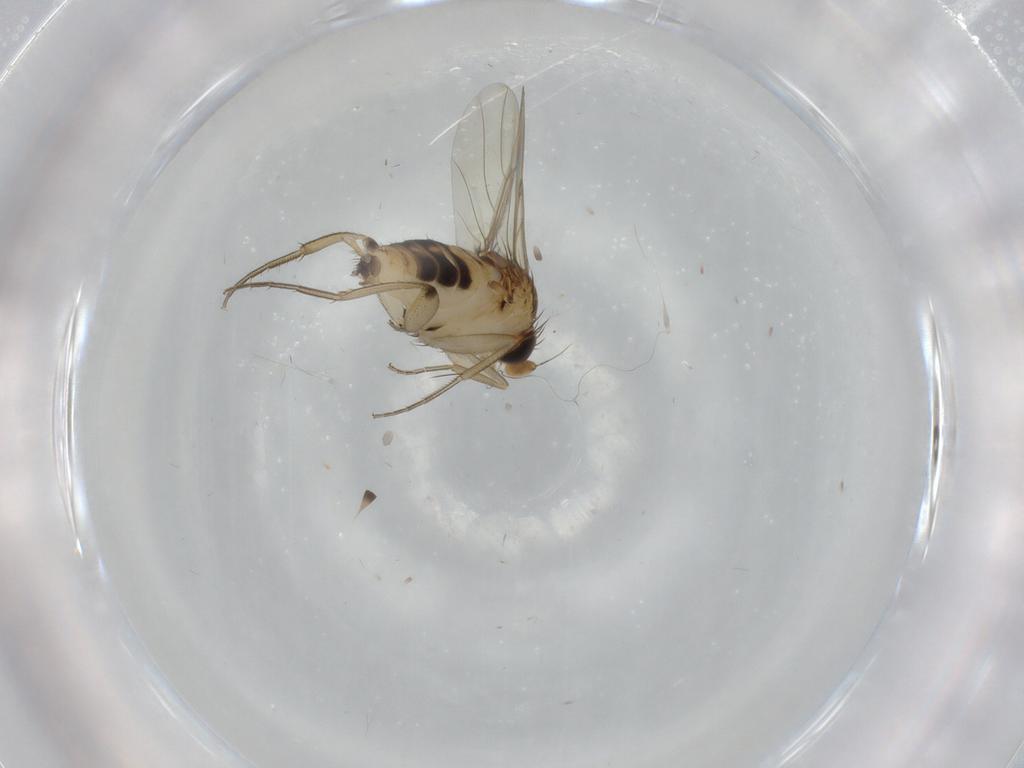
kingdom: Animalia
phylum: Arthropoda
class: Insecta
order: Diptera
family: Phoridae
